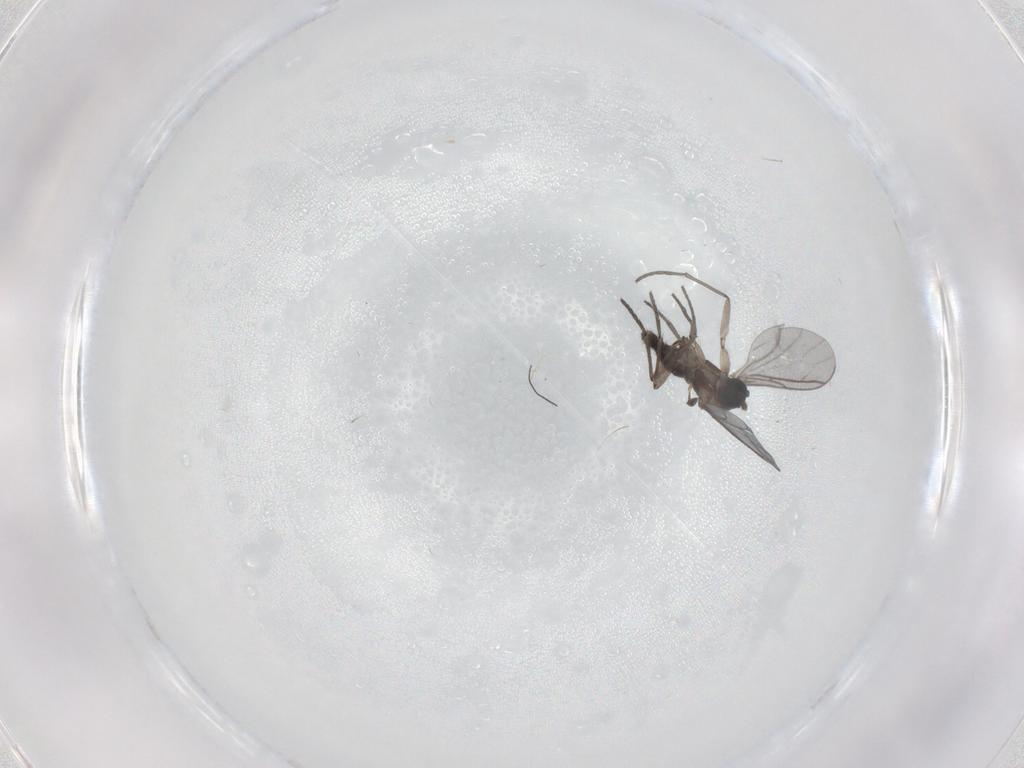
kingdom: Animalia
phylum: Arthropoda
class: Insecta
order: Diptera
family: Sciaridae
